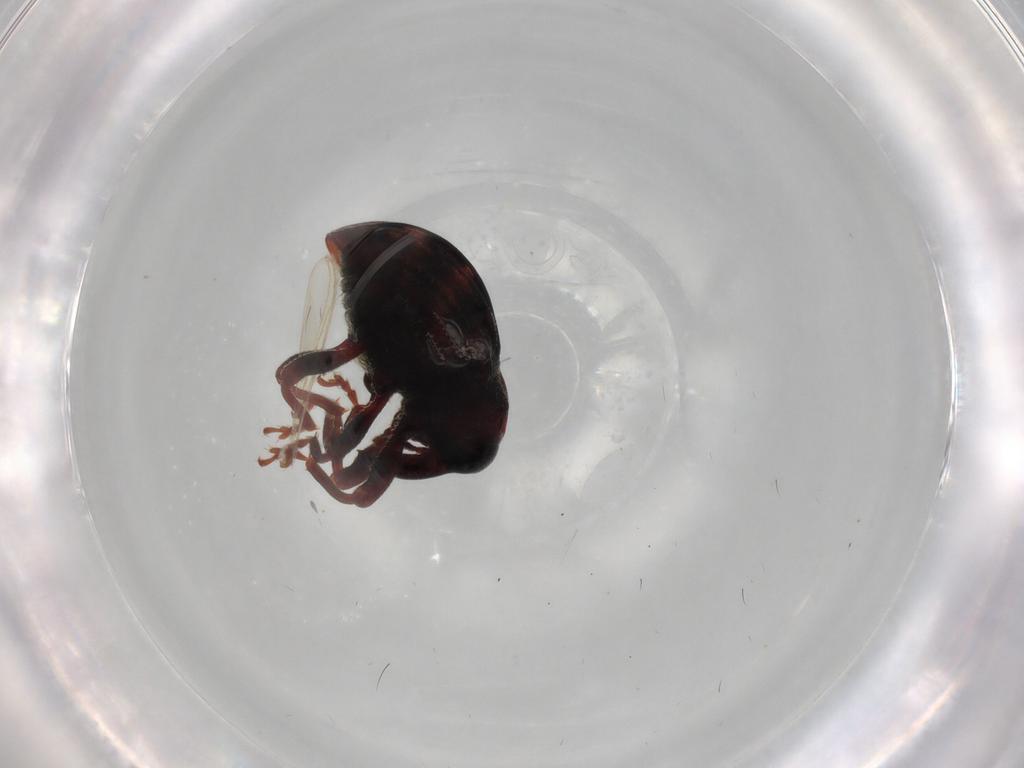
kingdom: Animalia
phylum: Arthropoda
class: Insecta
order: Coleoptera
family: Curculionidae
